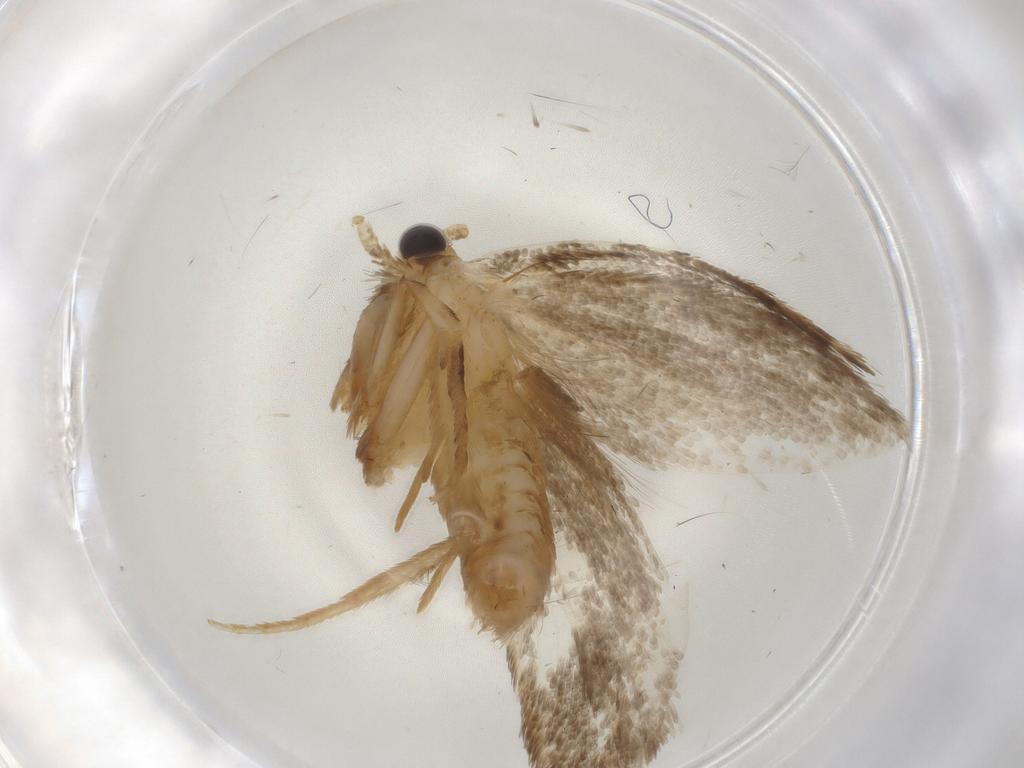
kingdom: Animalia
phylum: Arthropoda
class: Insecta
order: Lepidoptera
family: Tineidae
